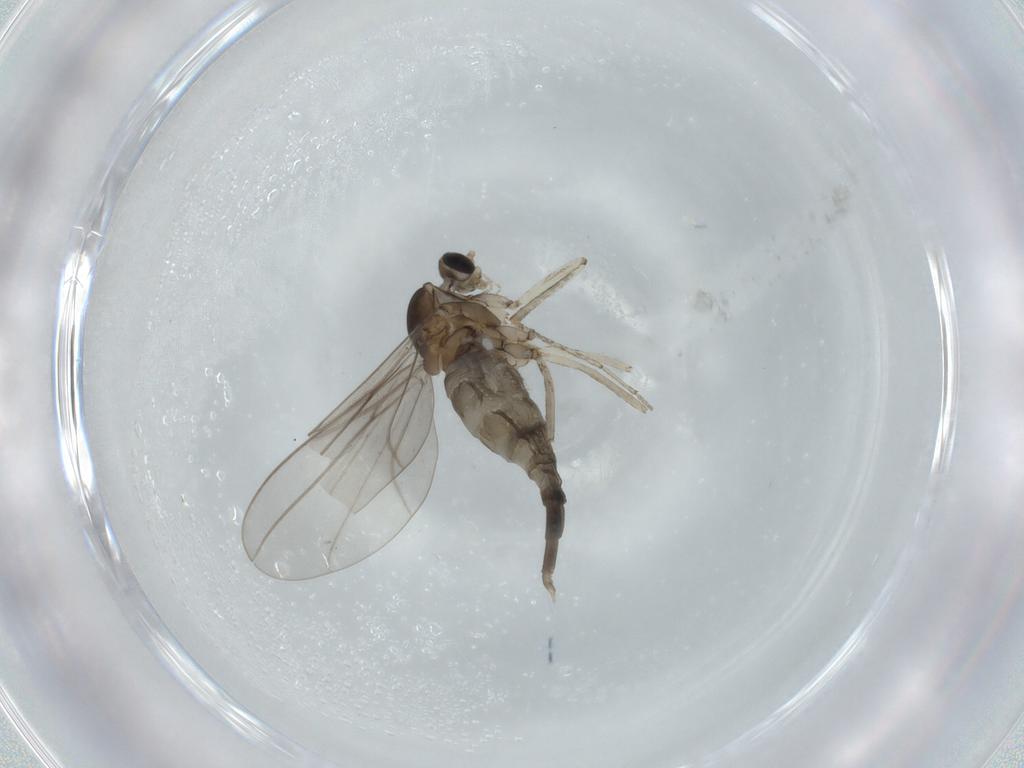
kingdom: Animalia
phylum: Arthropoda
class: Insecta
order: Diptera
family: Cecidomyiidae
